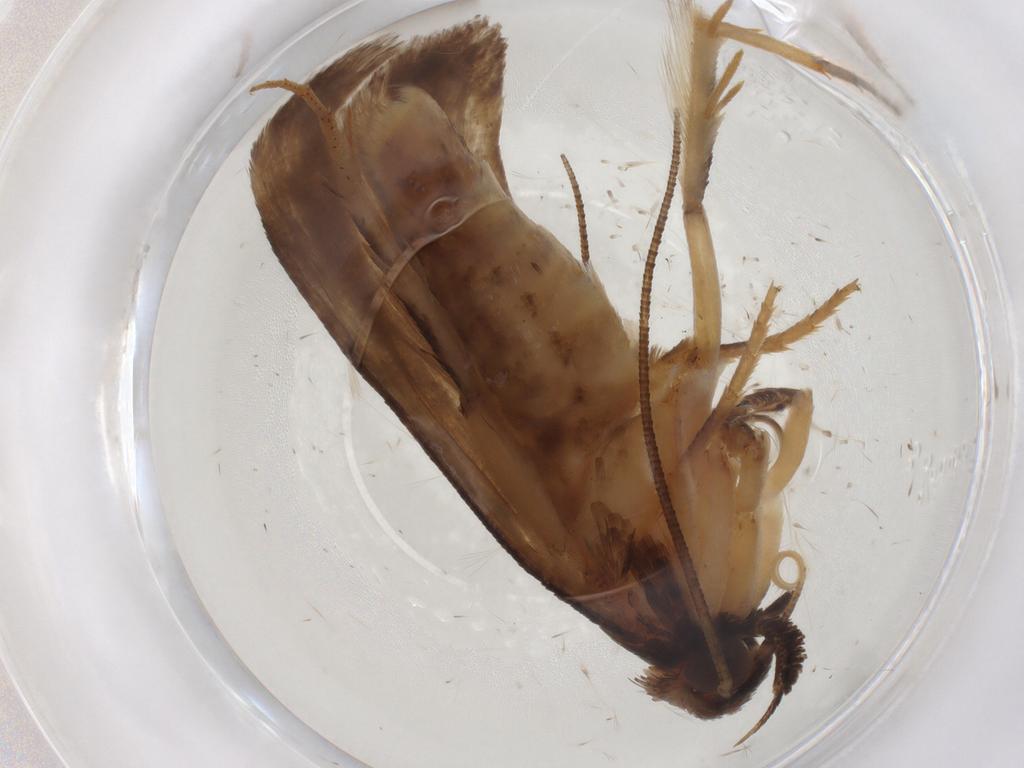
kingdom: Animalia
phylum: Arthropoda
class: Insecta
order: Lepidoptera
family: Gelechiidae
